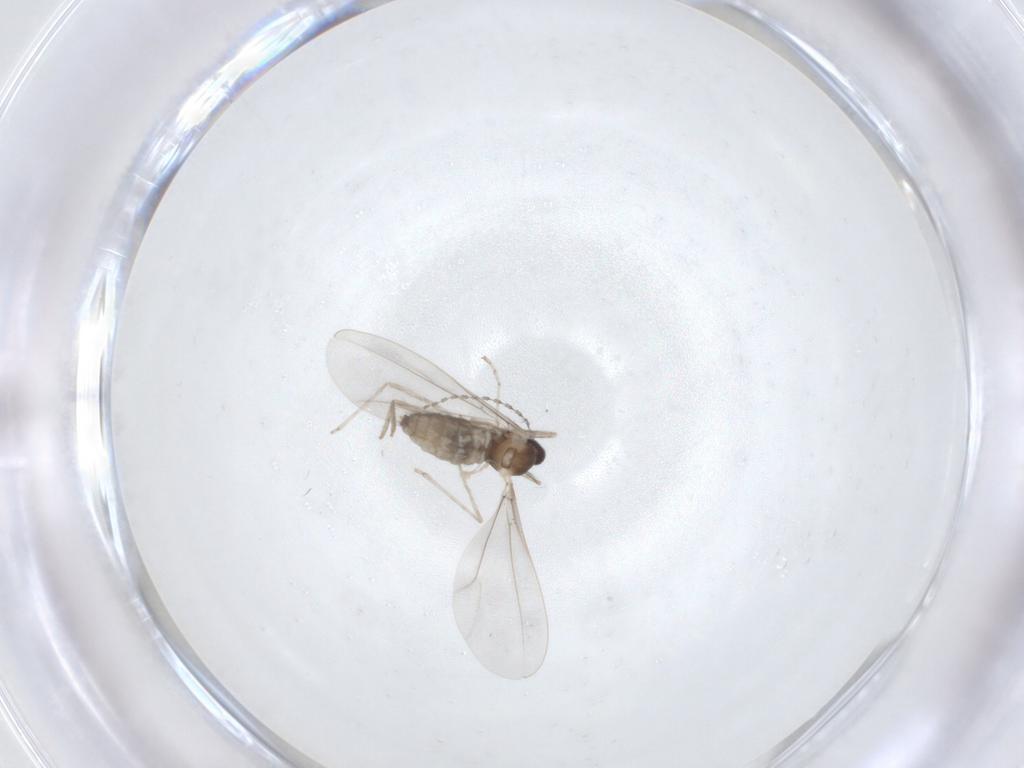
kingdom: Animalia
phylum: Arthropoda
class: Insecta
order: Diptera
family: Cecidomyiidae
